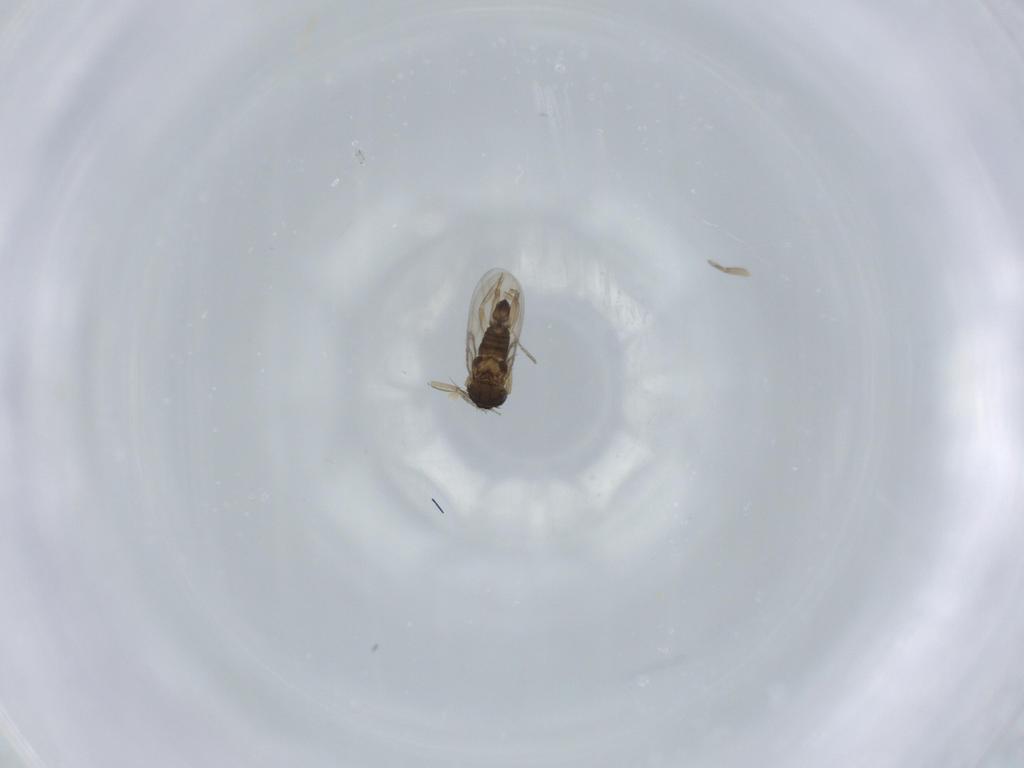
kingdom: Animalia
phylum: Arthropoda
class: Insecta
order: Diptera
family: Phoridae
